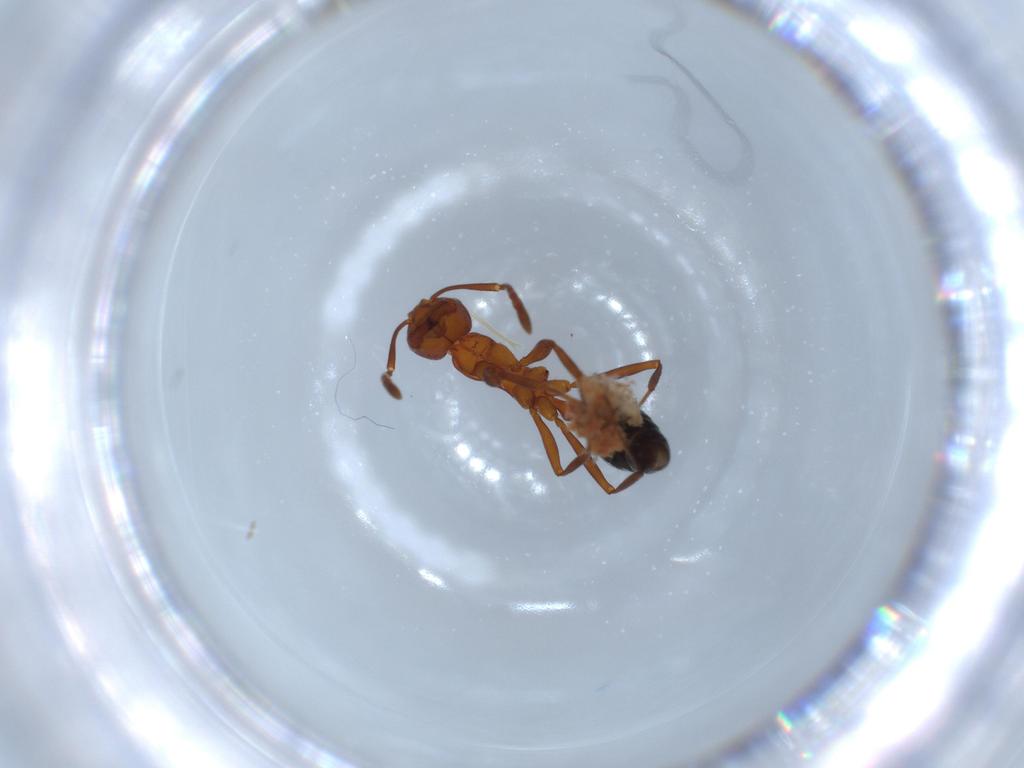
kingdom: Animalia
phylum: Arthropoda
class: Insecta
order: Hymenoptera
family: Formicidae
